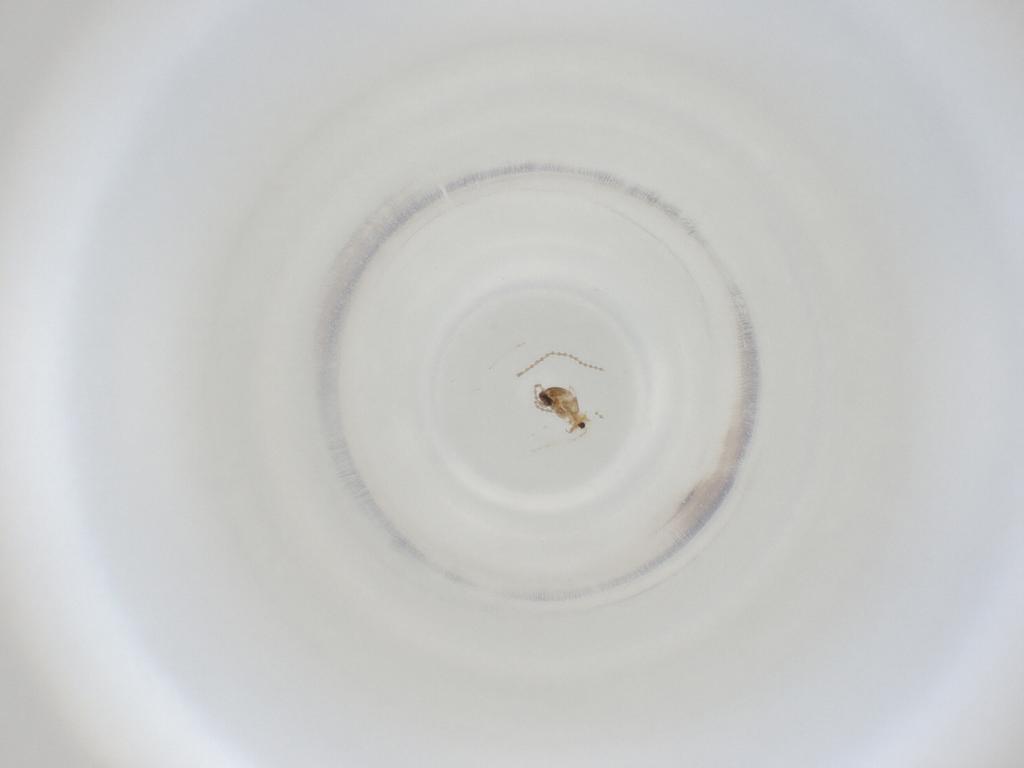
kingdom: Animalia
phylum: Arthropoda
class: Insecta
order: Diptera
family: Cecidomyiidae
